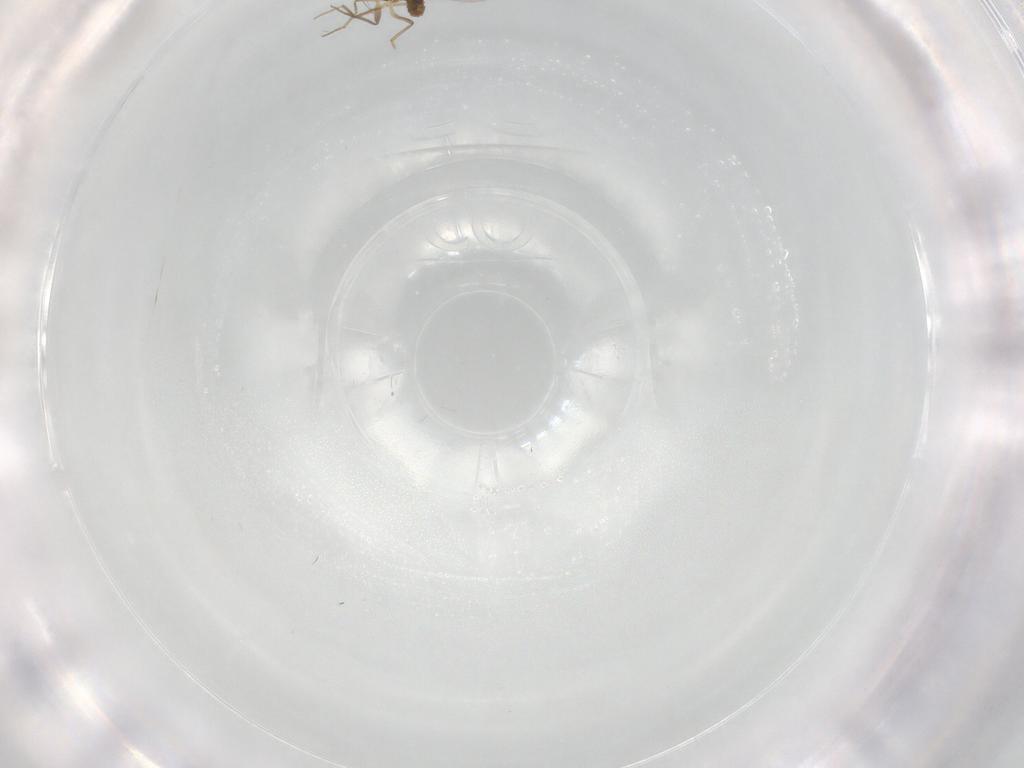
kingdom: Animalia
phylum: Arthropoda
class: Insecta
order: Diptera
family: Chironomidae
